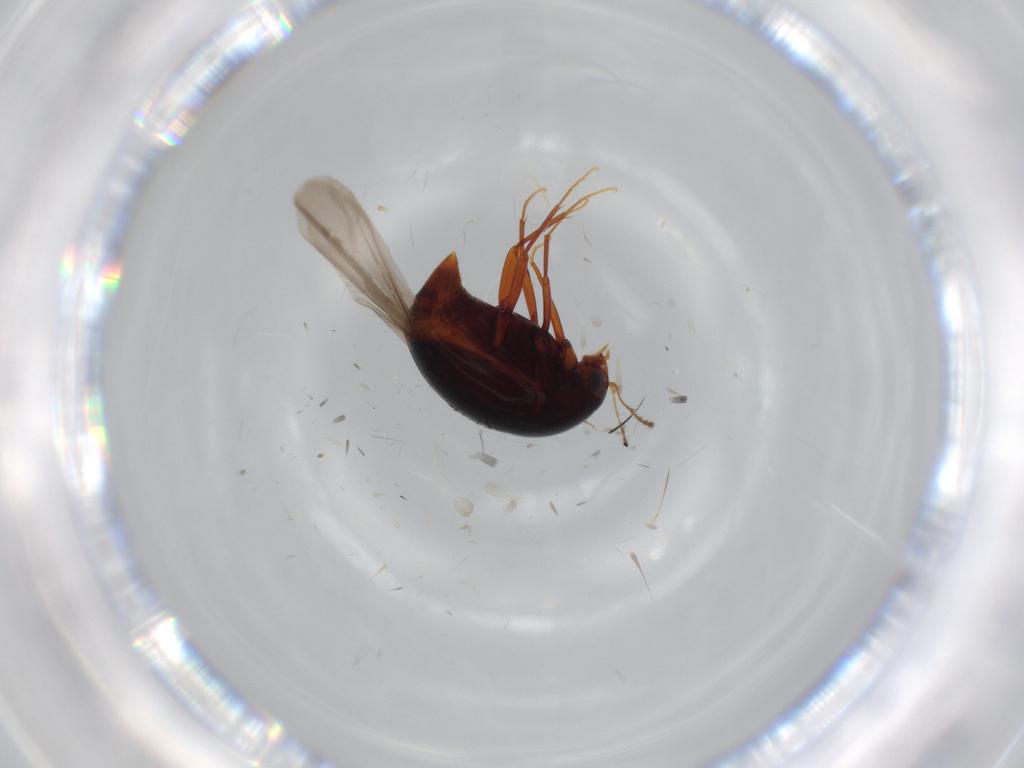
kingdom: Animalia
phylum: Arthropoda
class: Insecta
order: Coleoptera
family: Staphylinidae
